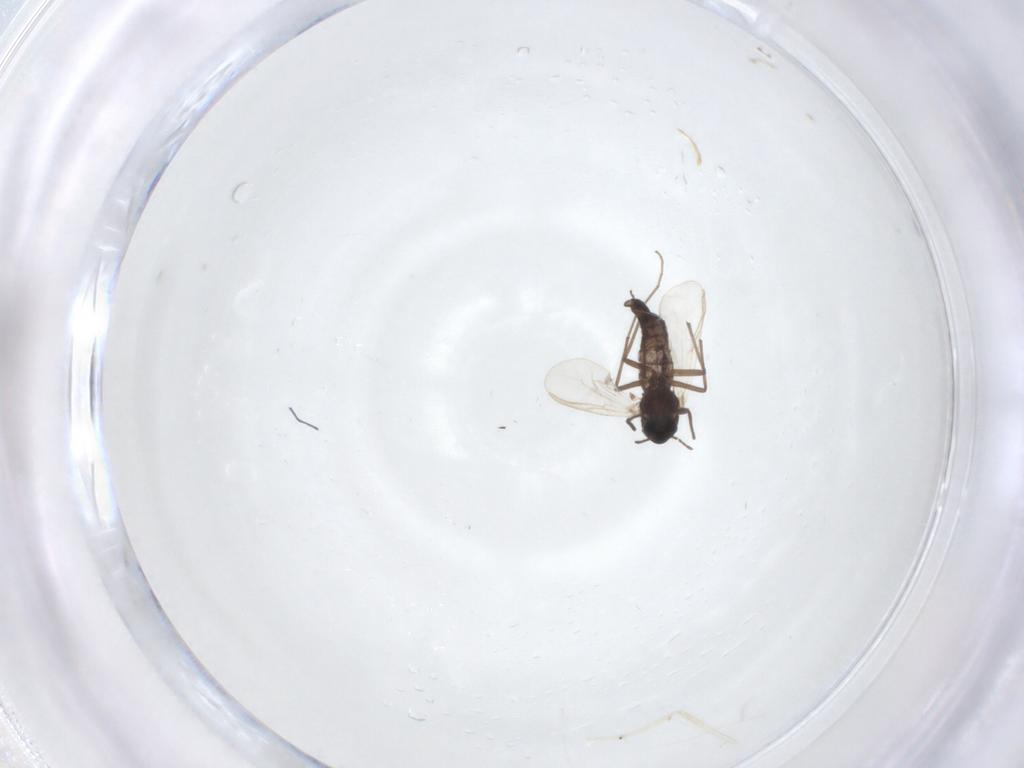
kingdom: Animalia
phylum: Arthropoda
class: Insecta
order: Diptera
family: Chironomidae
